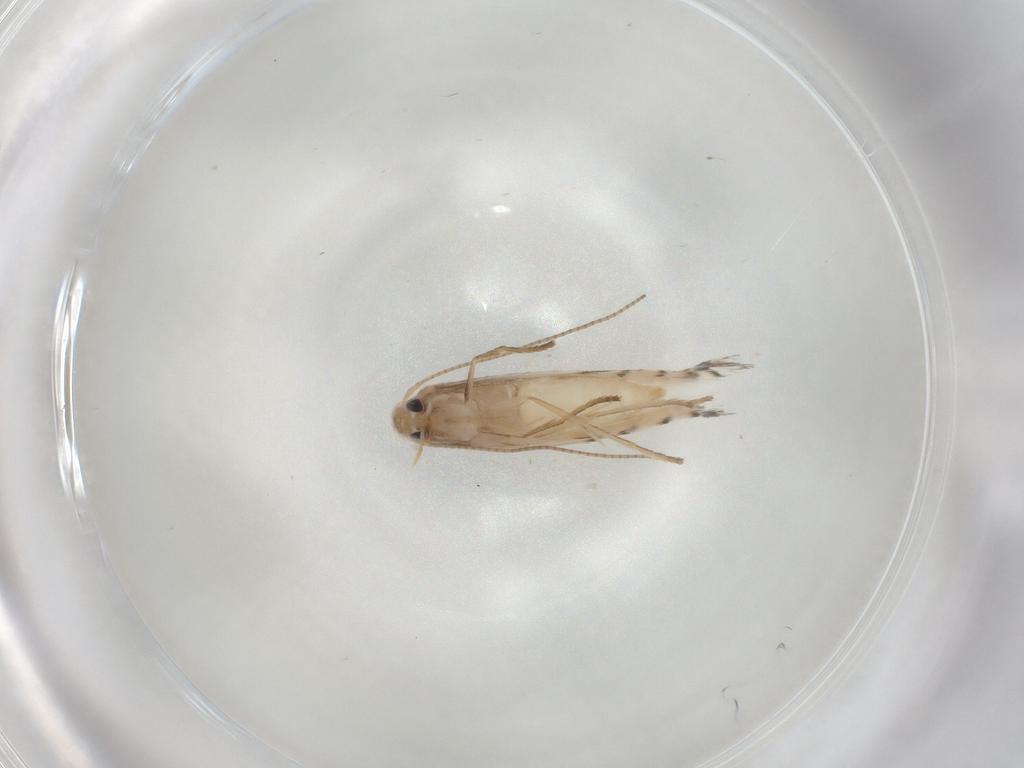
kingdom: Animalia
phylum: Arthropoda
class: Insecta
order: Lepidoptera
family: Gracillariidae
